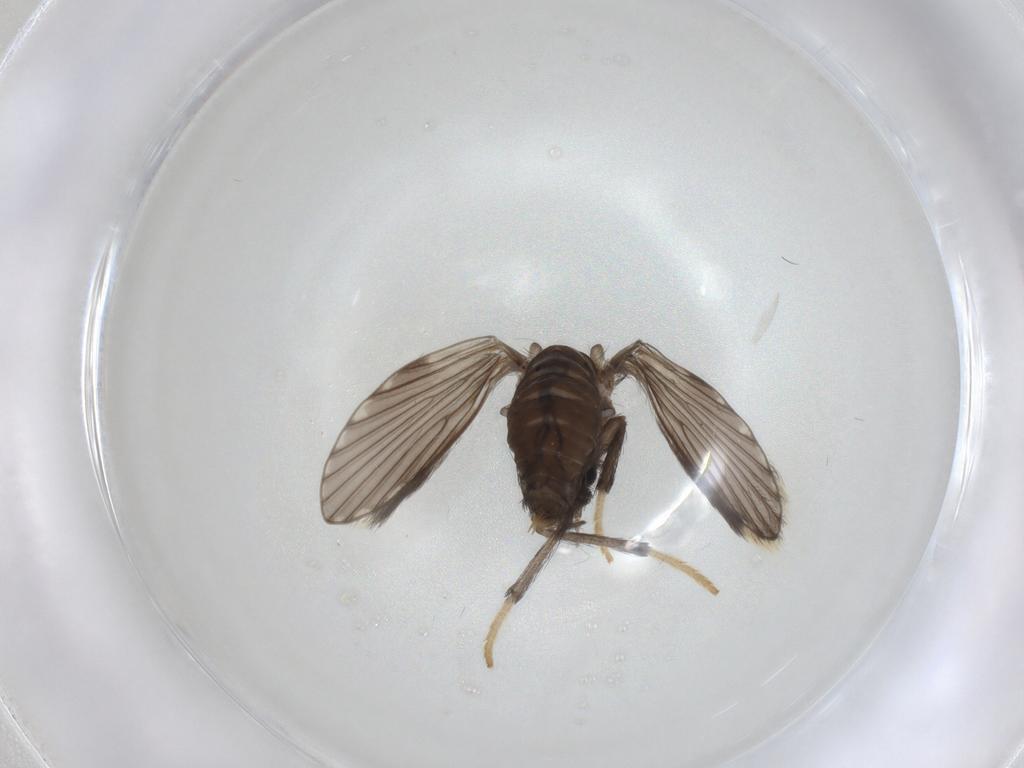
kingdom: Animalia
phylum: Arthropoda
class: Insecta
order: Diptera
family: Psychodidae
